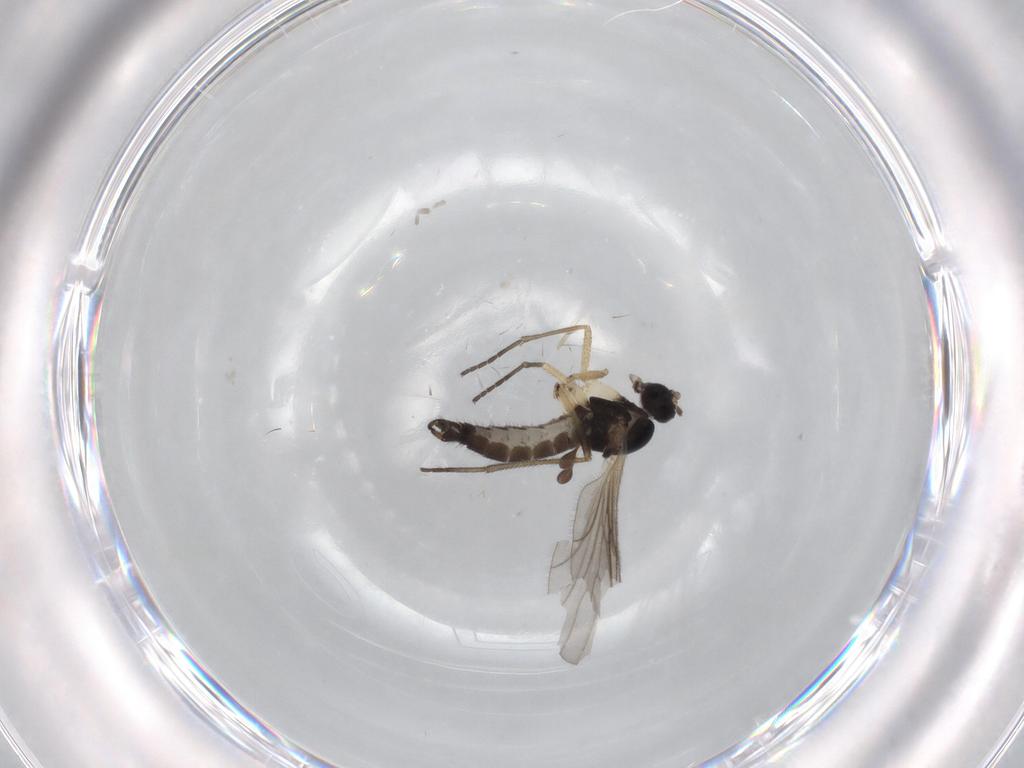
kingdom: Animalia
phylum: Arthropoda
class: Insecta
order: Diptera
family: Sciaridae
